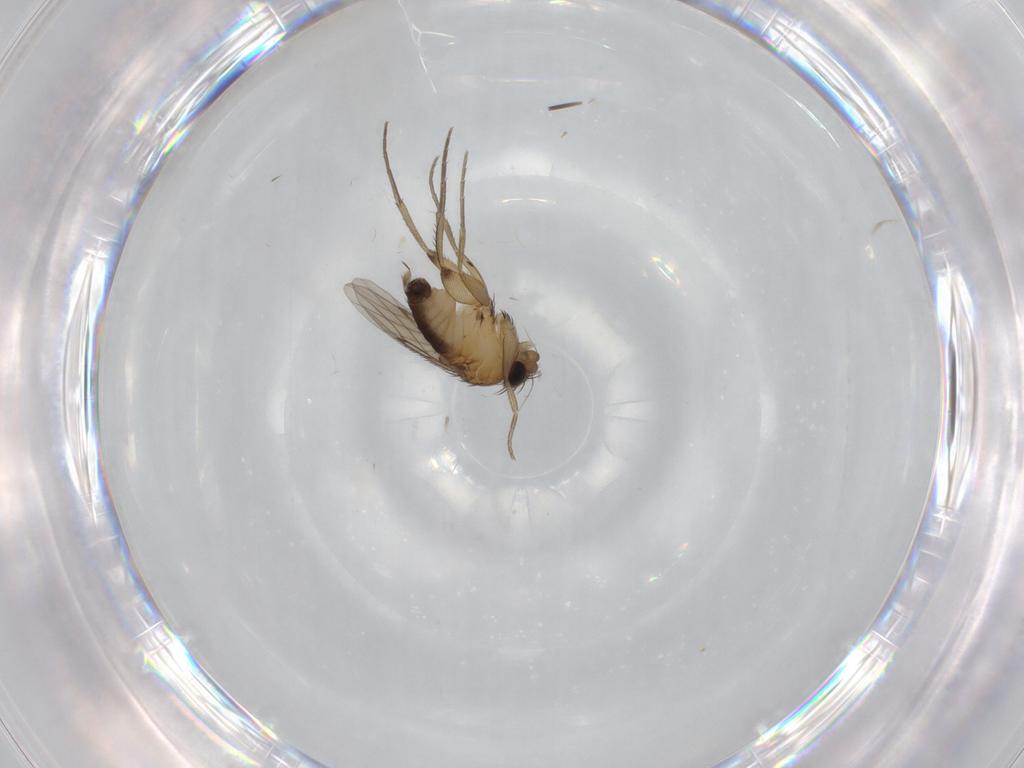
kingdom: Animalia
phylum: Arthropoda
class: Insecta
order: Diptera
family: Phoridae
